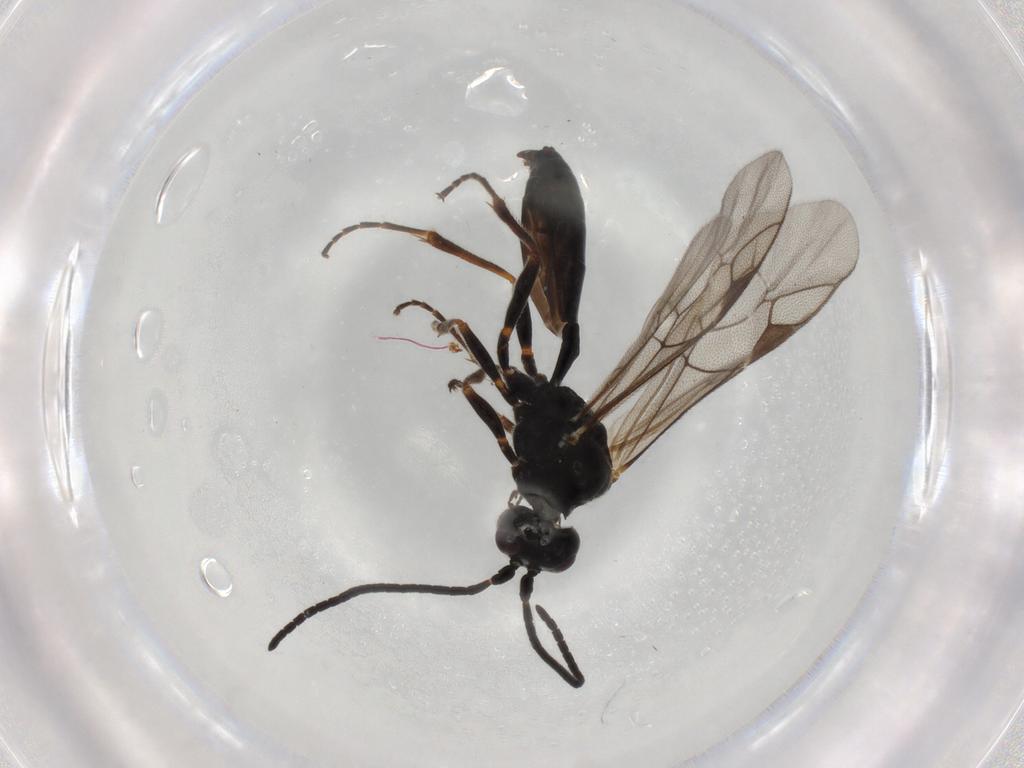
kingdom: Animalia
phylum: Arthropoda
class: Insecta
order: Hymenoptera
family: Ichneumonidae
